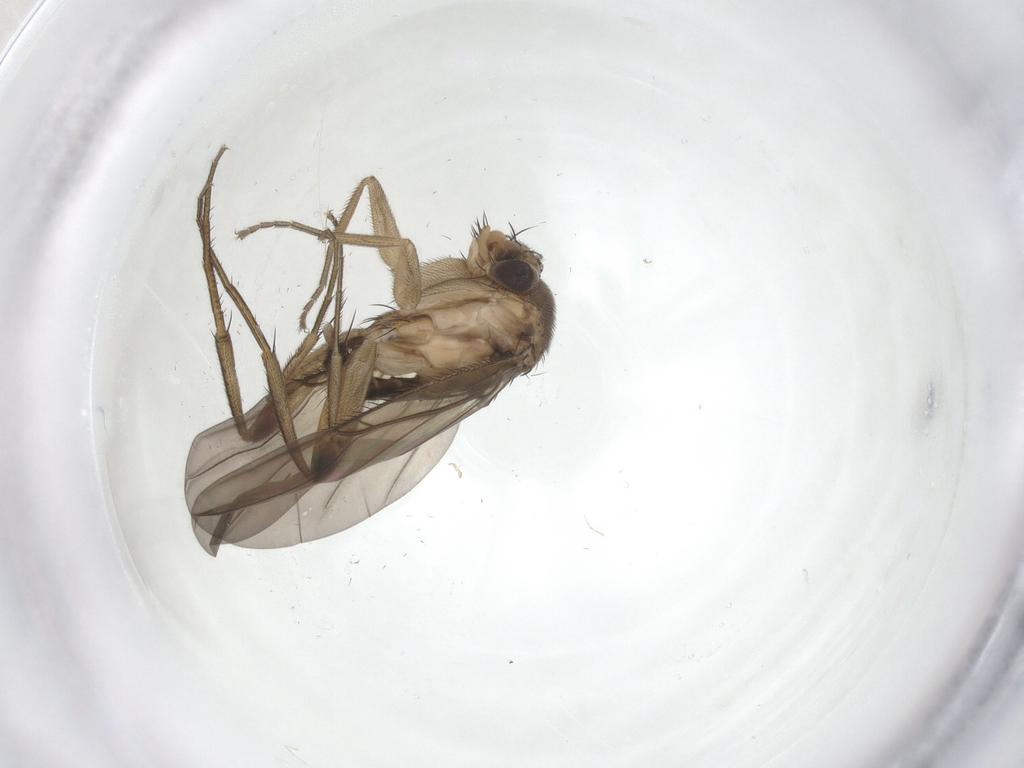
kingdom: Animalia
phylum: Arthropoda
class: Insecta
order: Diptera
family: Phoridae
